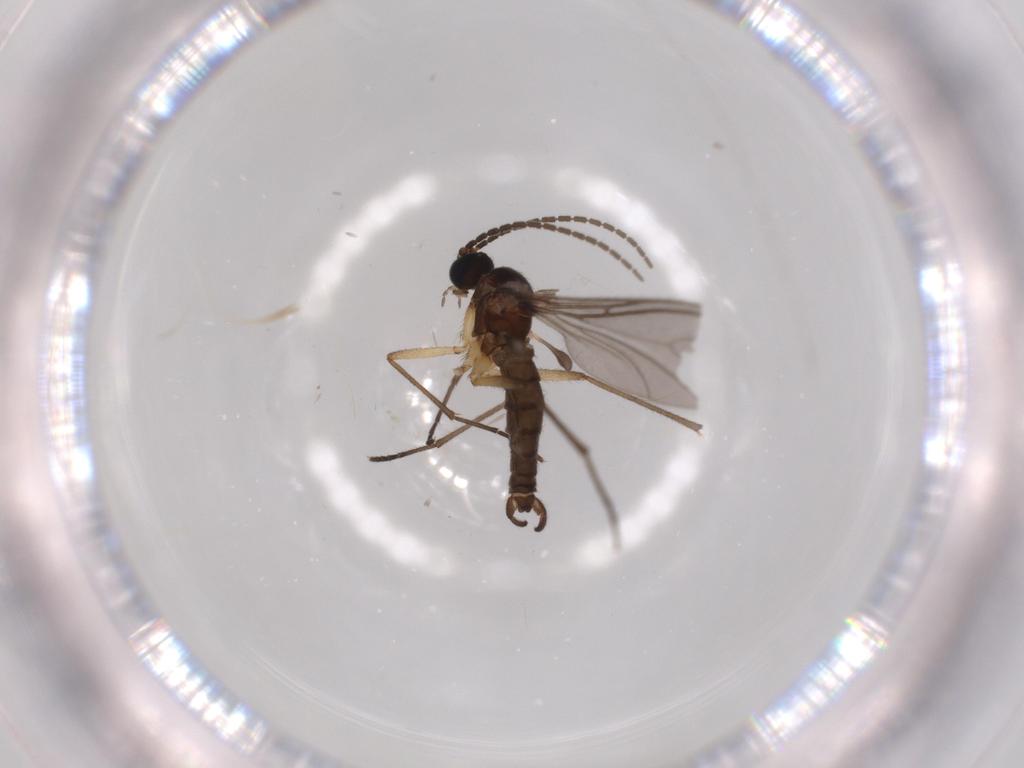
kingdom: Animalia
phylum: Arthropoda
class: Insecta
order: Diptera
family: Sciaridae
